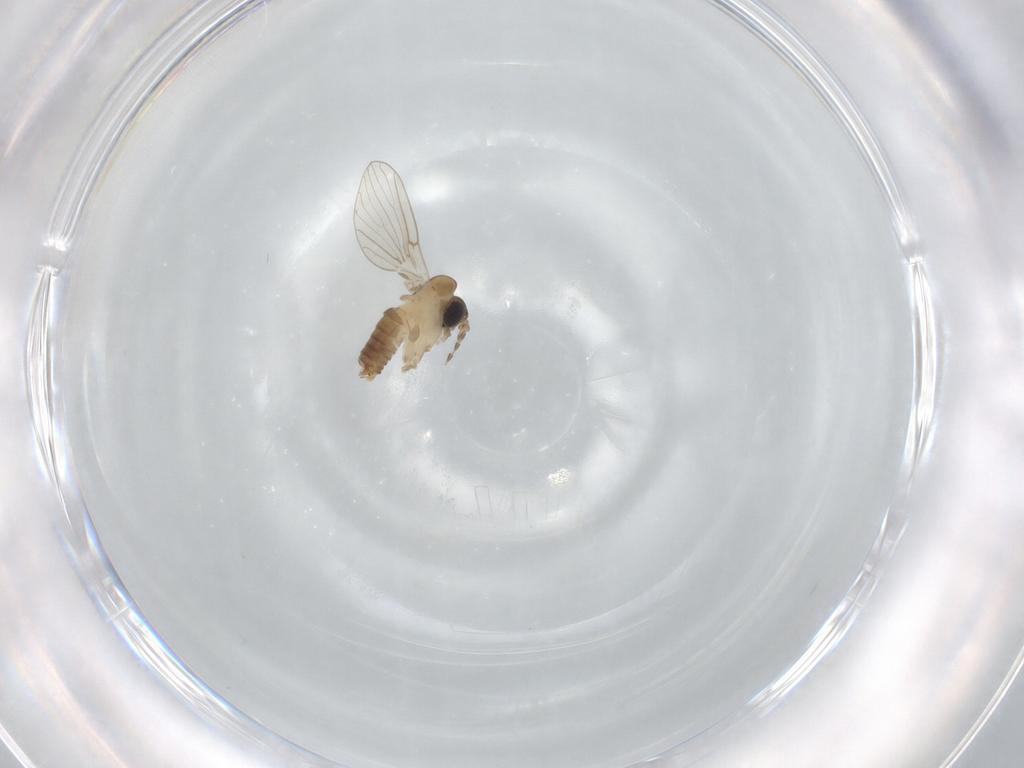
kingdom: Animalia
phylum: Arthropoda
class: Insecta
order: Diptera
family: Psychodidae
